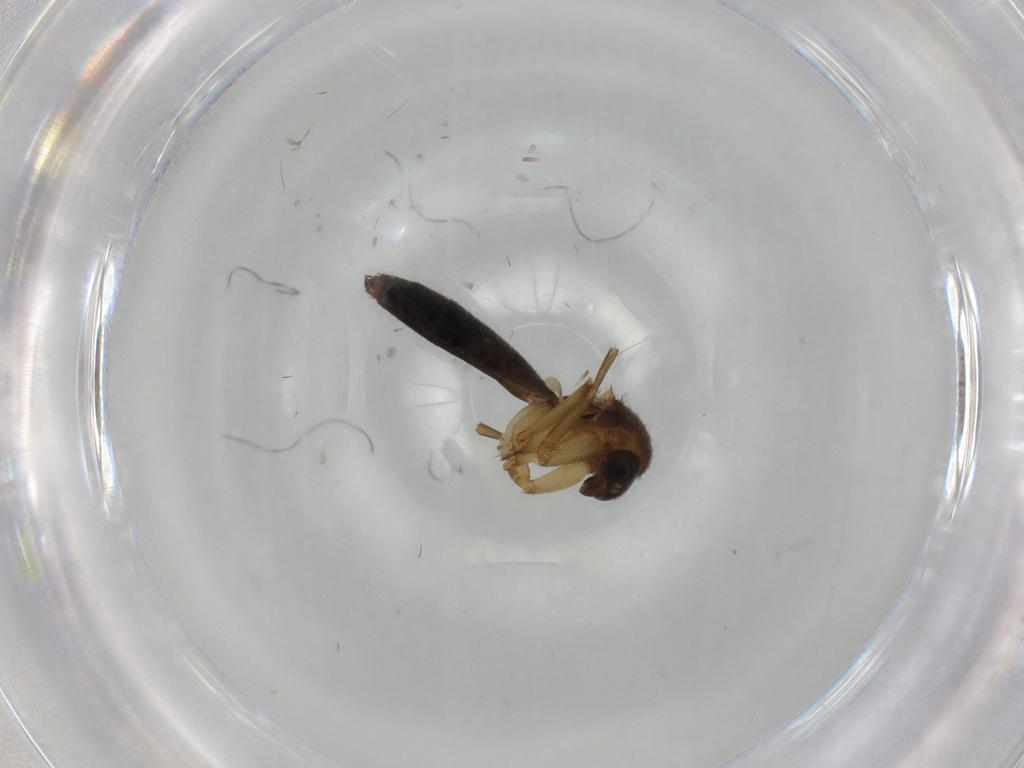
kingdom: Animalia
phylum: Arthropoda
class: Insecta
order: Diptera
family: Mycetophilidae
